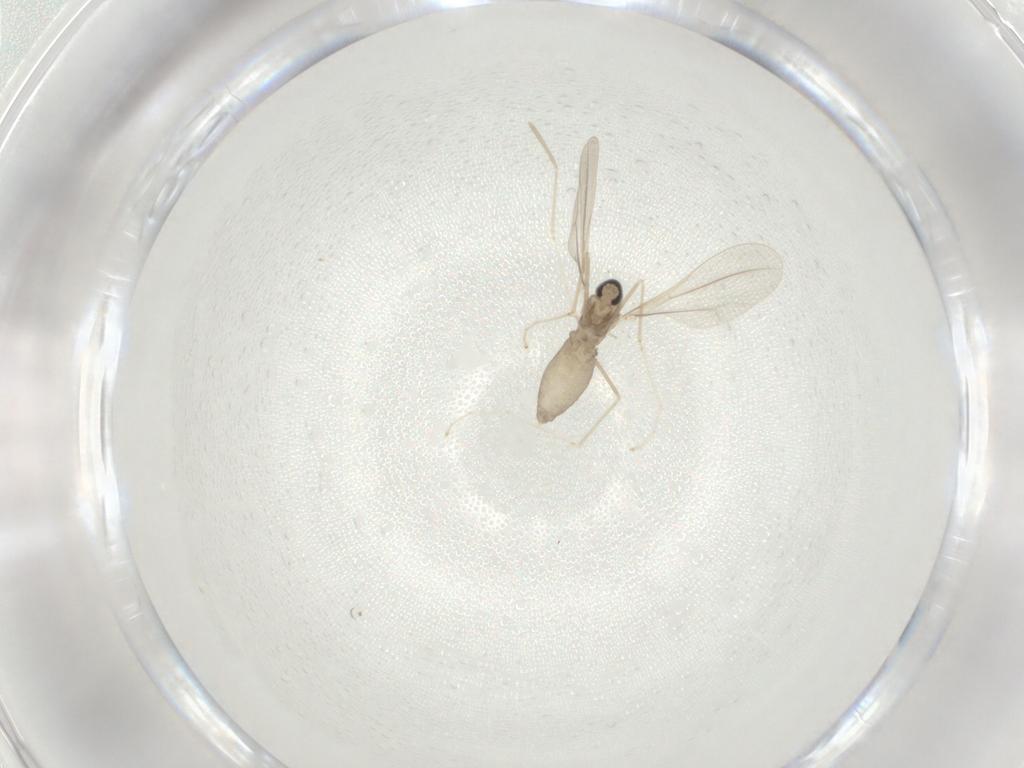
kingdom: Animalia
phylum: Arthropoda
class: Insecta
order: Diptera
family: Cecidomyiidae
